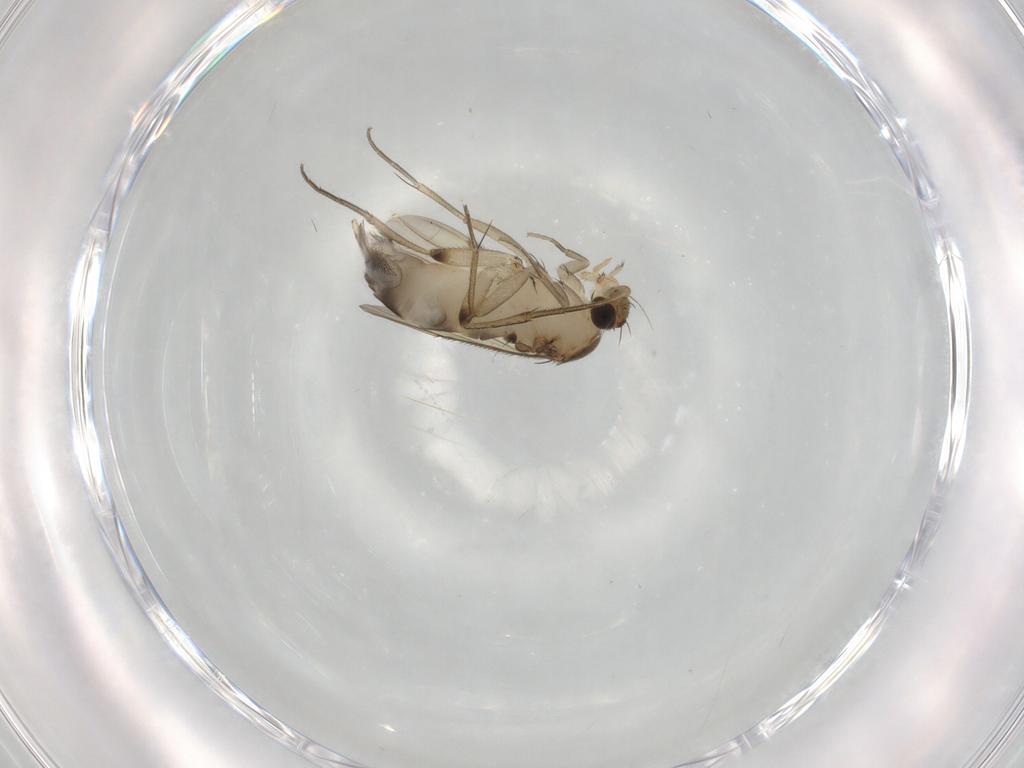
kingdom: Animalia
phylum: Arthropoda
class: Insecta
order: Diptera
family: Phoridae
